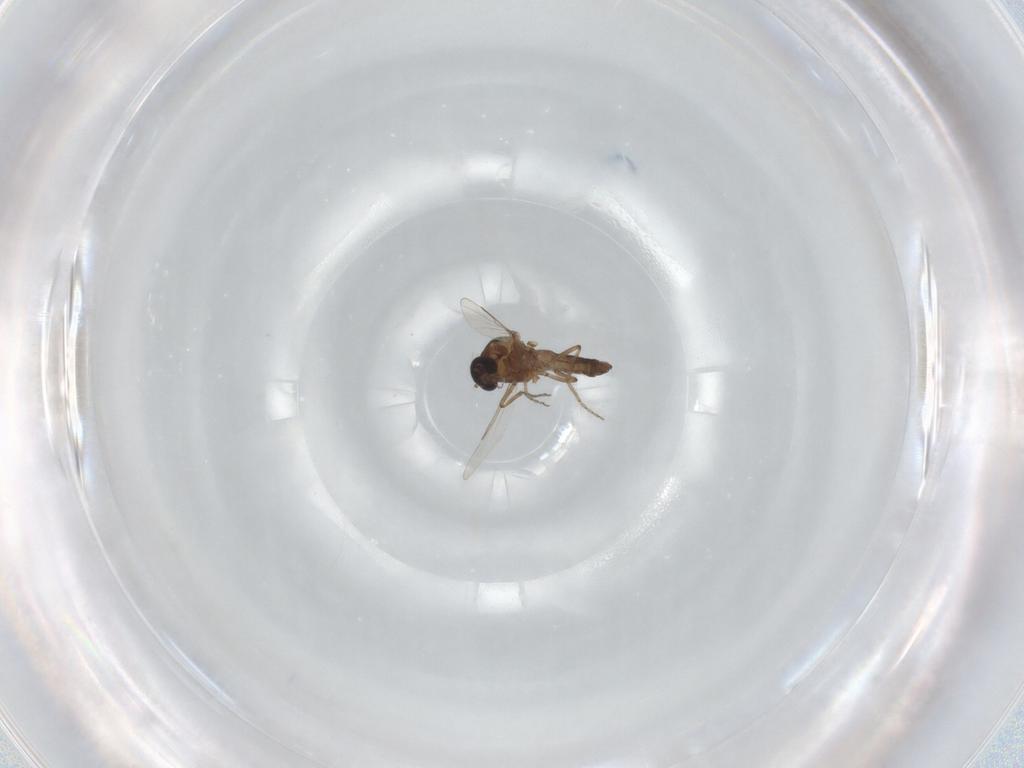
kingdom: Animalia
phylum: Arthropoda
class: Insecta
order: Diptera
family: Ceratopogonidae
